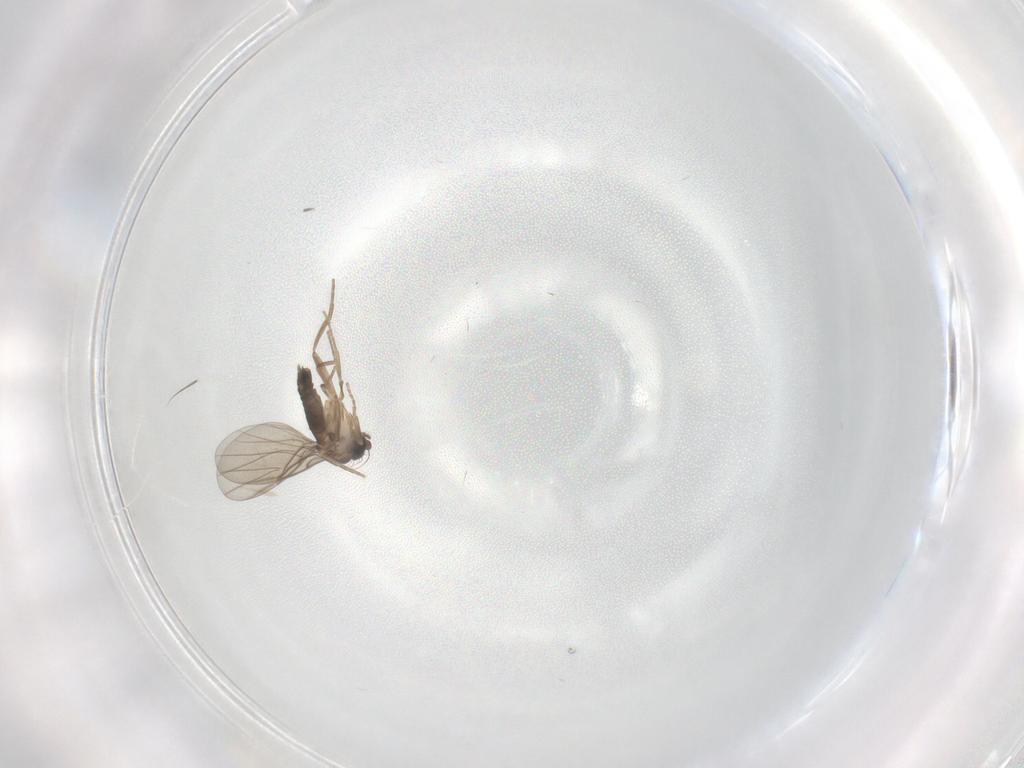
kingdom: Animalia
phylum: Arthropoda
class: Insecta
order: Diptera
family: Phoridae
